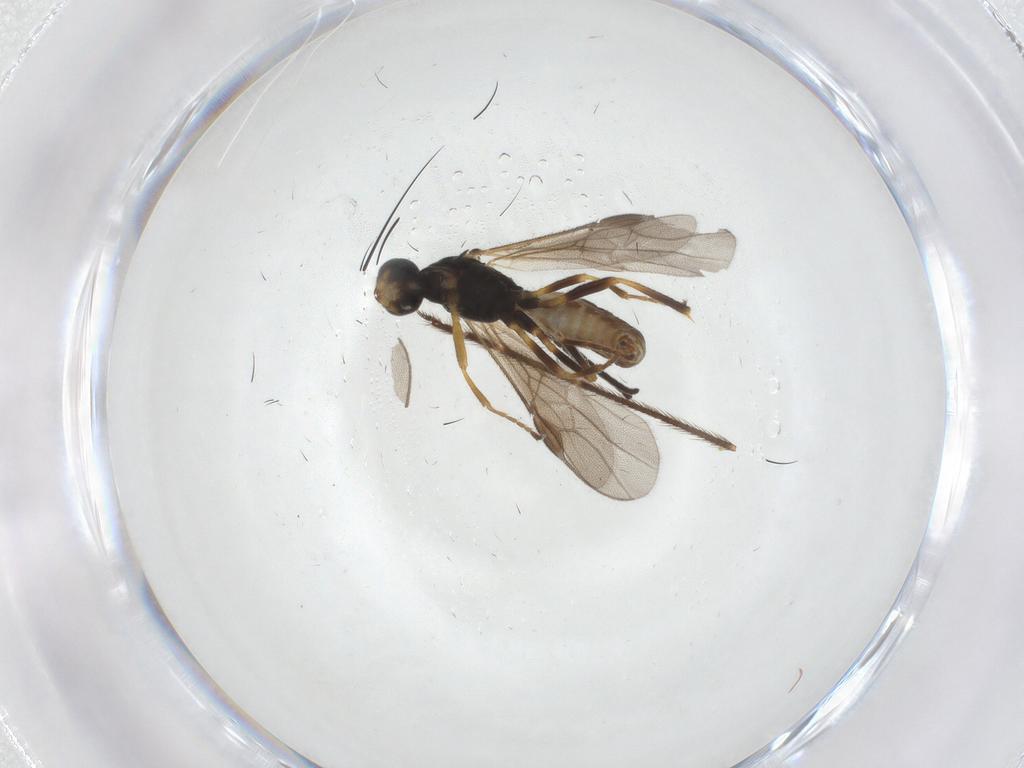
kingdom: Animalia
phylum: Arthropoda
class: Insecta
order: Hymenoptera
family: Braconidae
